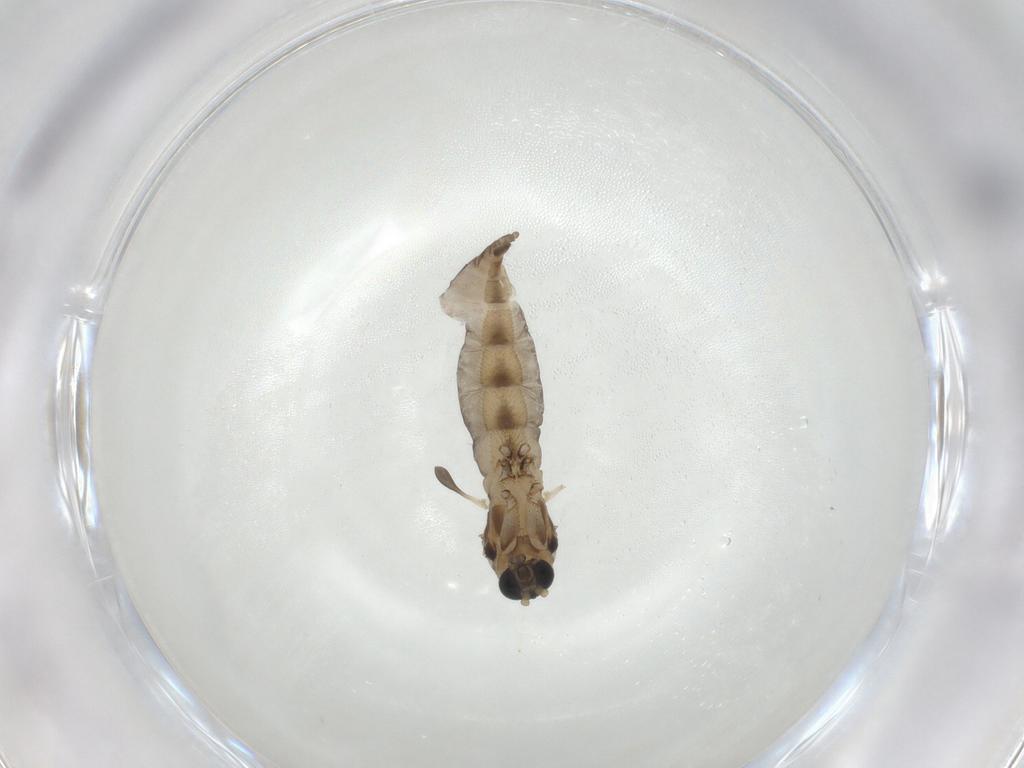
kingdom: Animalia
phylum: Arthropoda
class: Insecta
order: Diptera
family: Sciaridae
